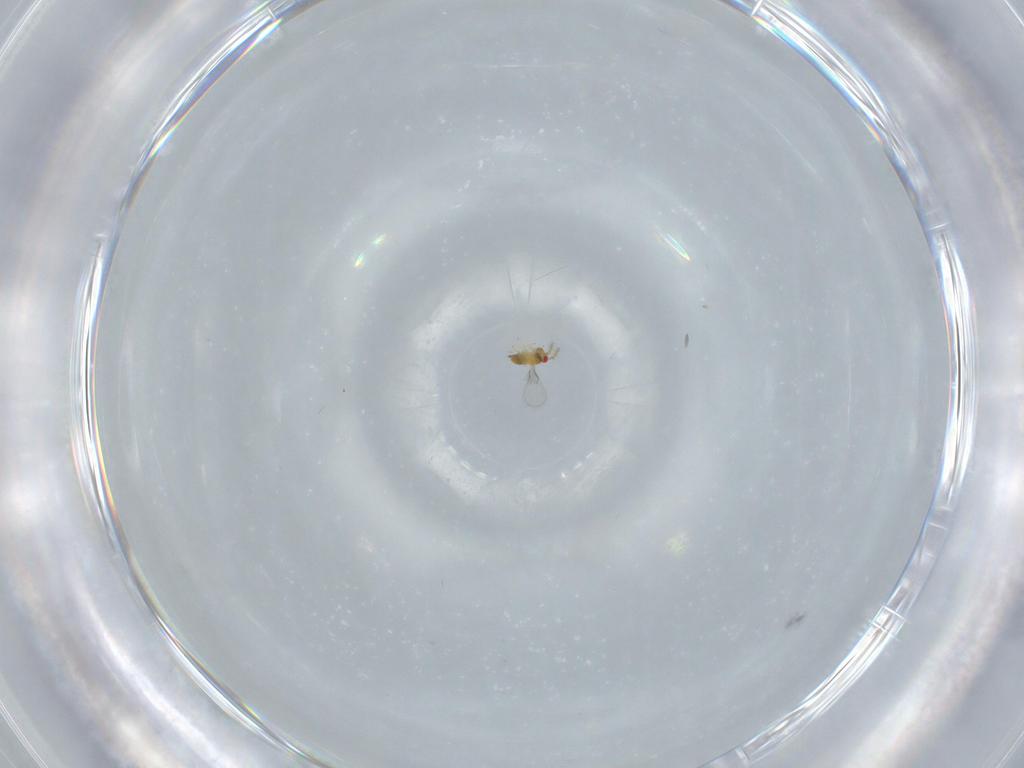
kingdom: Animalia
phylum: Arthropoda
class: Insecta
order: Hymenoptera
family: Trichogrammatidae
